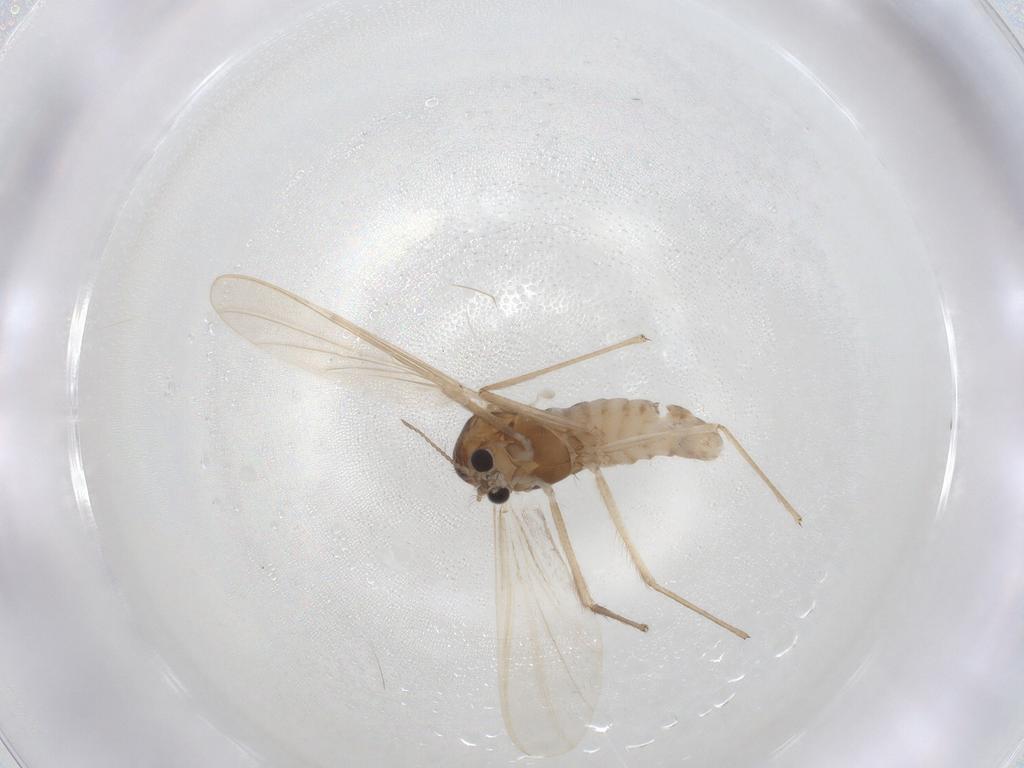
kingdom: Animalia
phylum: Arthropoda
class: Insecta
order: Diptera
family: Chironomidae
